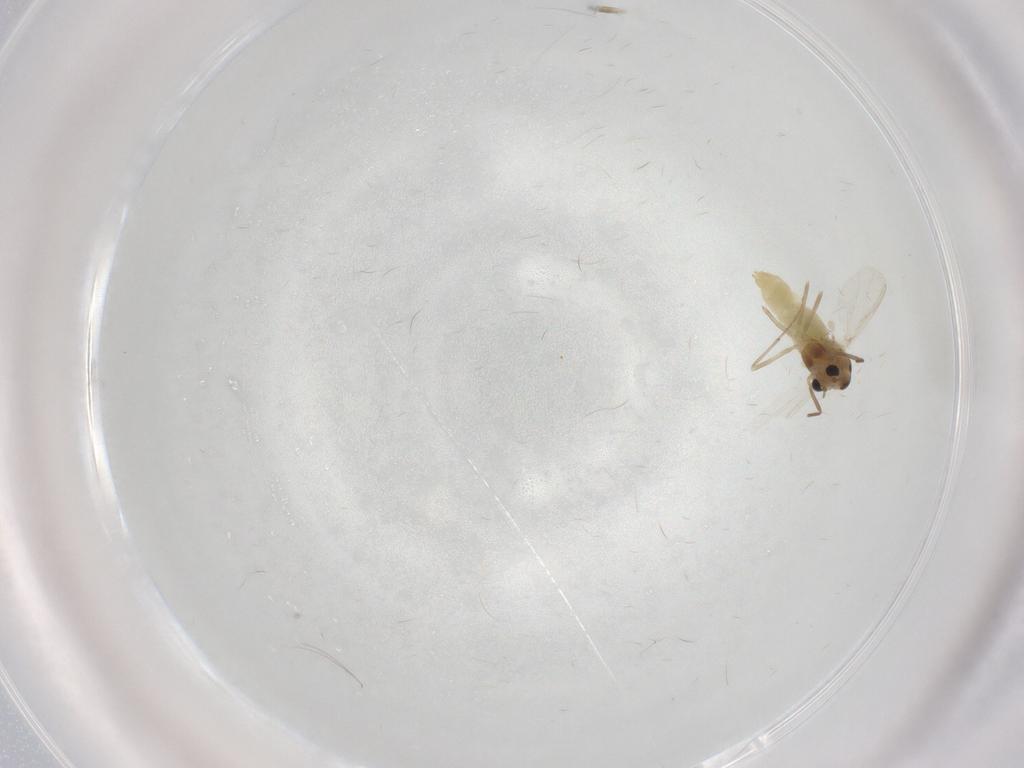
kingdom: Animalia
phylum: Arthropoda
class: Insecta
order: Diptera
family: Chironomidae
